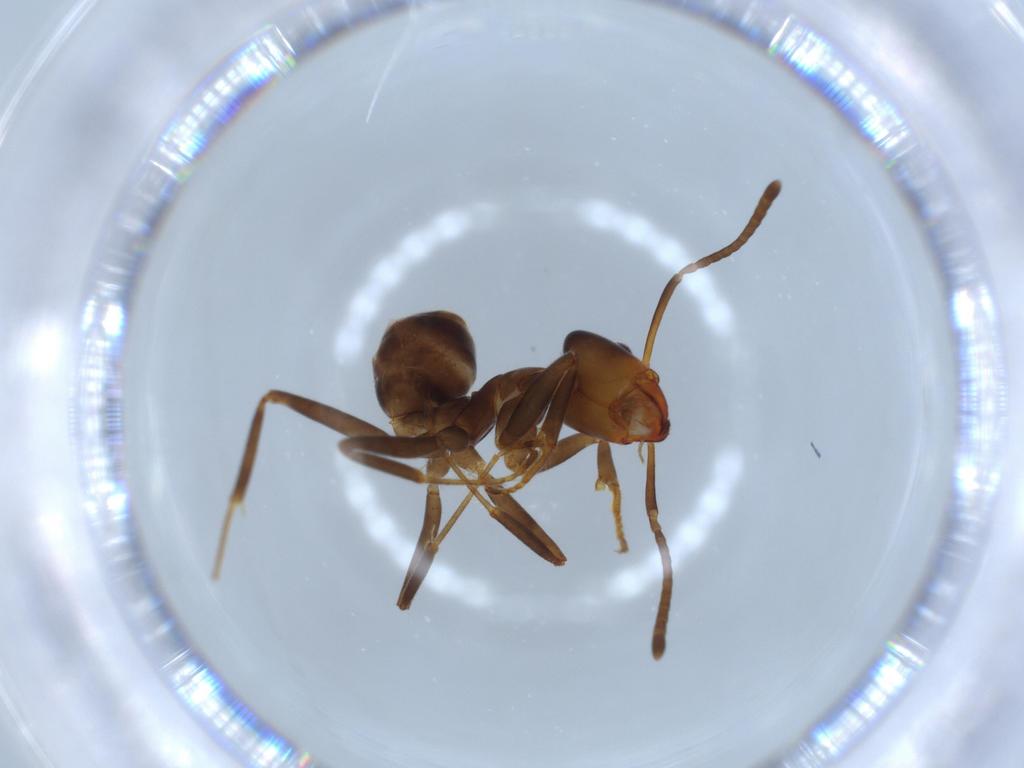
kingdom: Animalia
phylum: Arthropoda
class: Insecta
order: Hymenoptera
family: Formicidae
